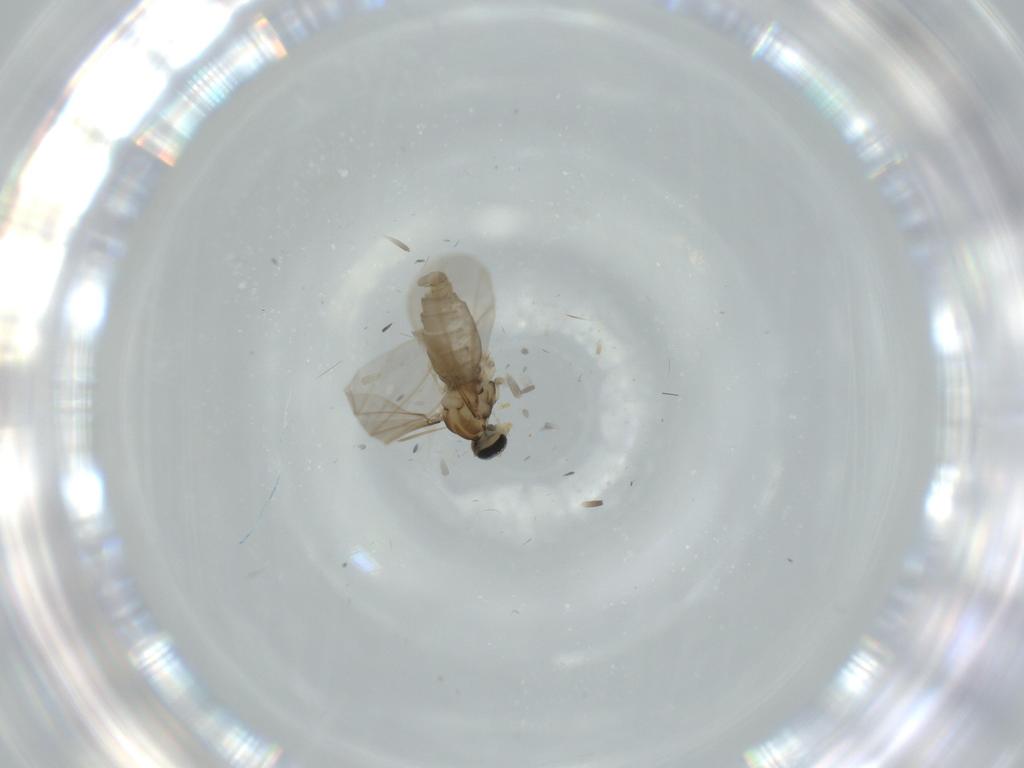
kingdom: Animalia
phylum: Arthropoda
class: Insecta
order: Diptera
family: Cecidomyiidae
